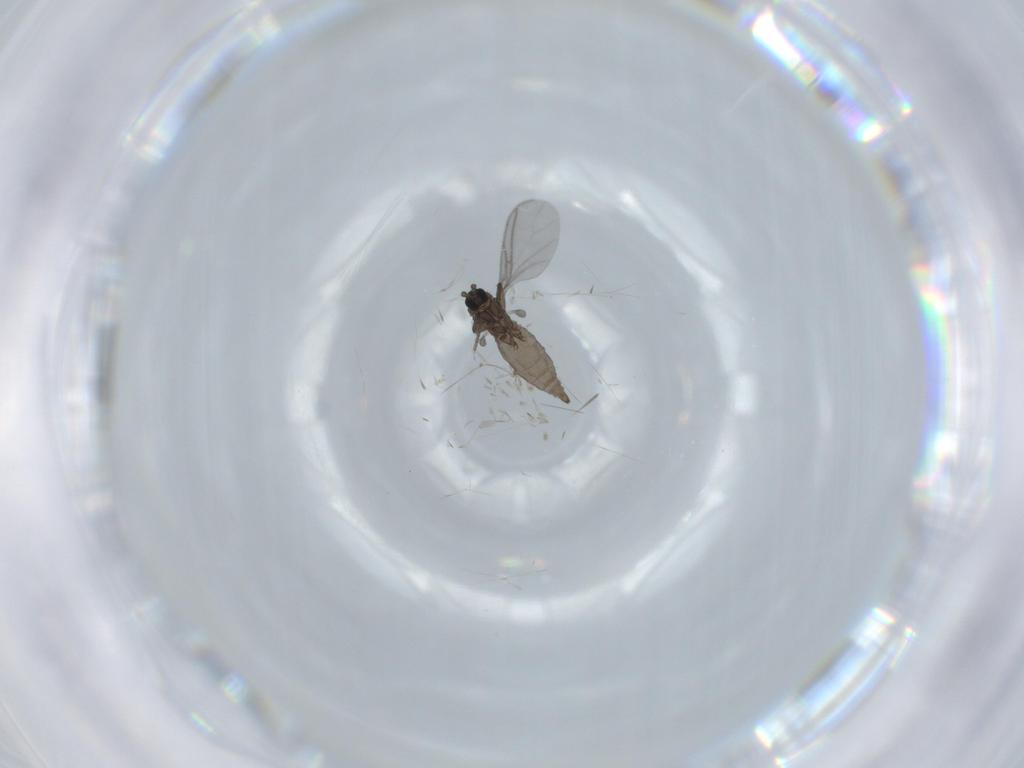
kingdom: Animalia
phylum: Arthropoda
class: Insecta
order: Diptera
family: Sciaridae
